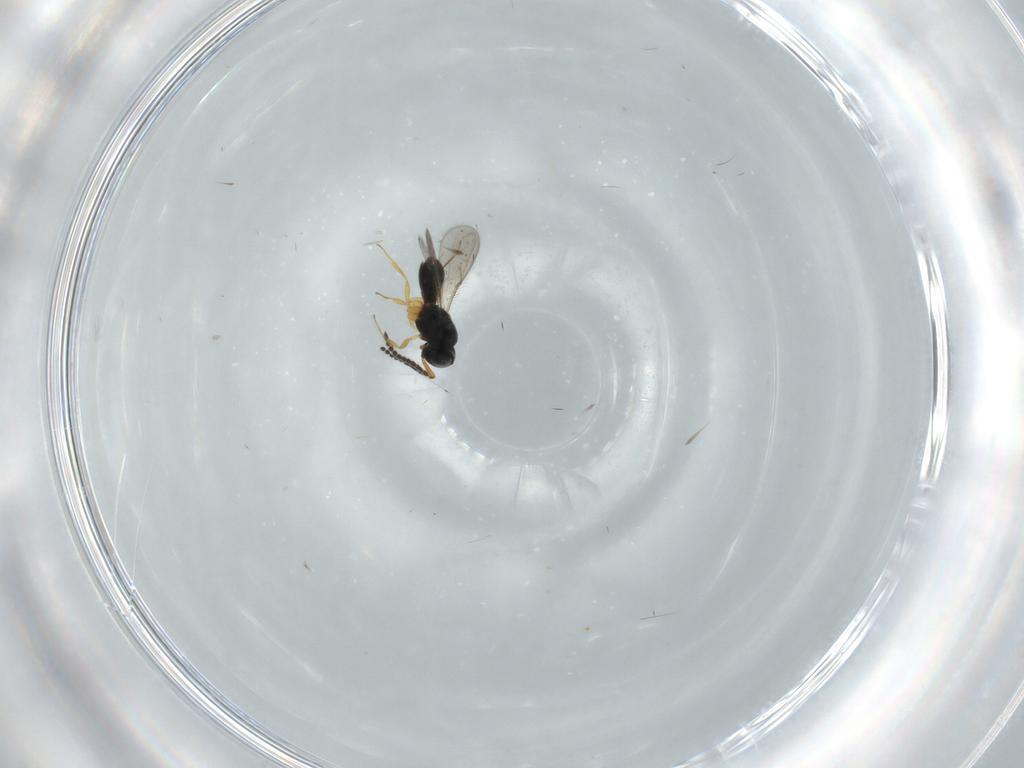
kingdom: Animalia
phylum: Arthropoda
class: Insecta
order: Hymenoptera
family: Scelionidae
